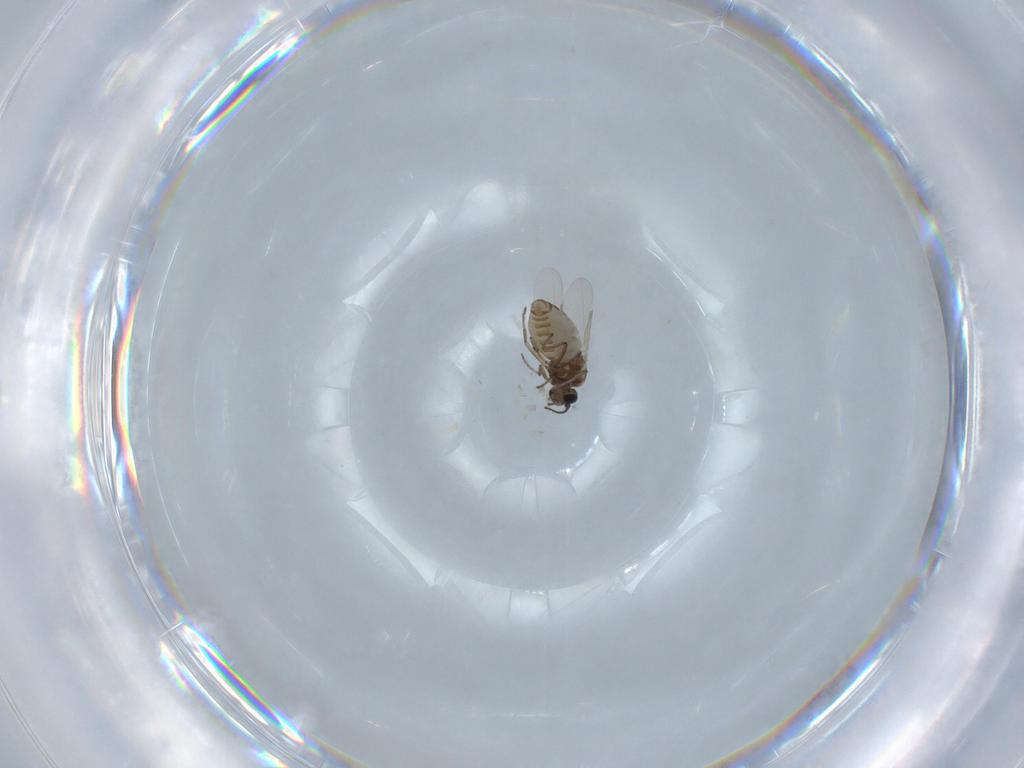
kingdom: Animalia
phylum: Arthropoda
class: Insecta
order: Diptera
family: Ceratopogonidae
